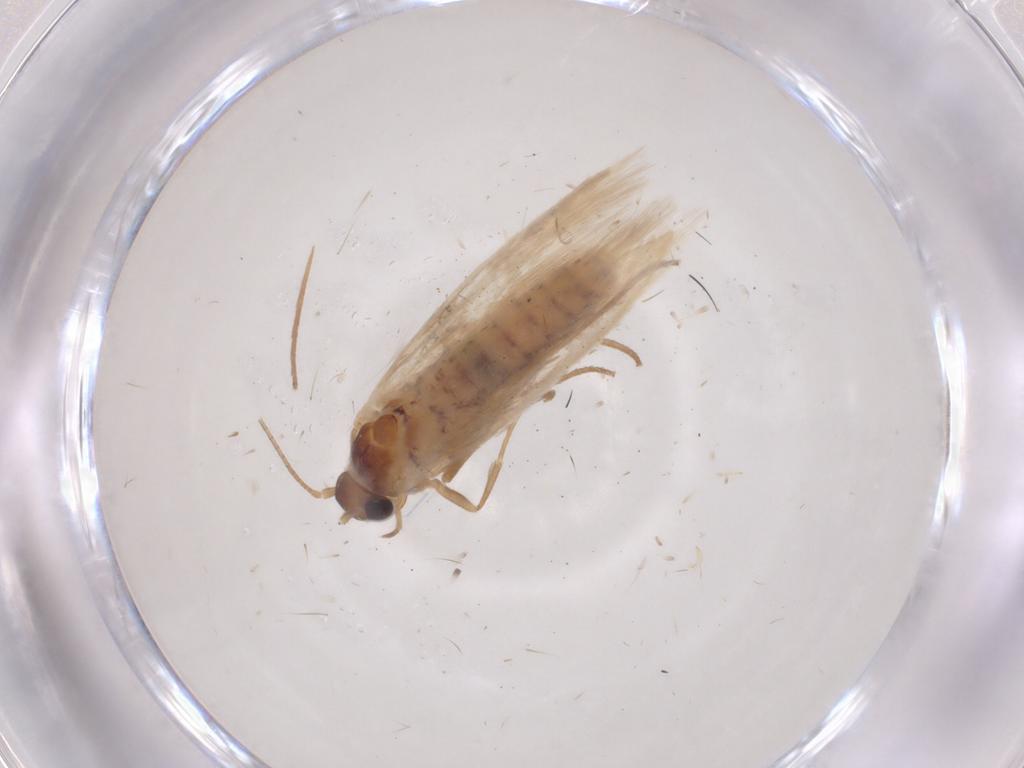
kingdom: Animalia
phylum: Arthropoda
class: Insecta
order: Lepidoptera
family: Scythrididae
